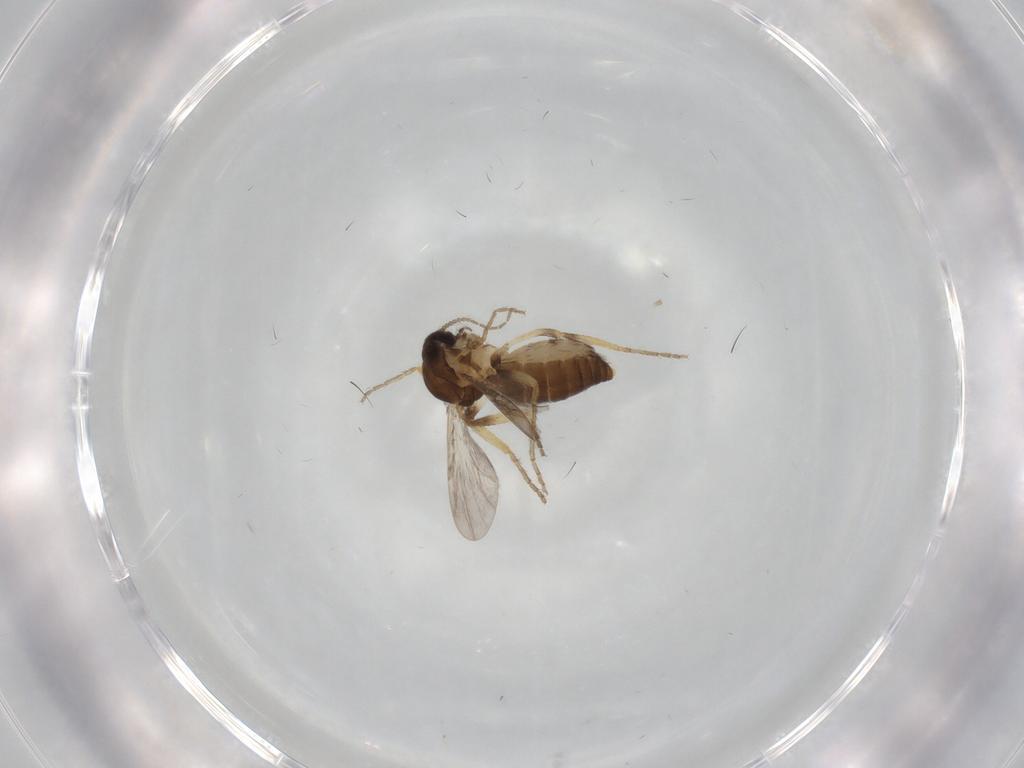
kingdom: Animalia
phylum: Arthropoda
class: Insecta
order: Diptera
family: Ceratopogonidae
